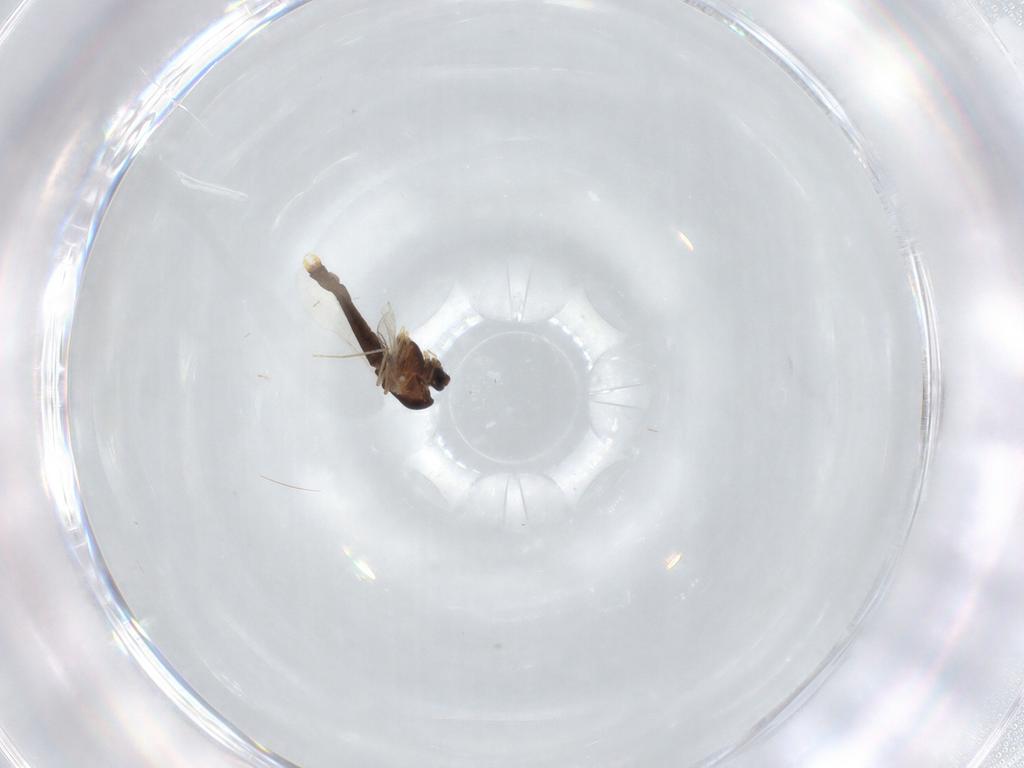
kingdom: Animalia
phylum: Arthropoda
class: Insecta
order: Diptera
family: Chironomidae
